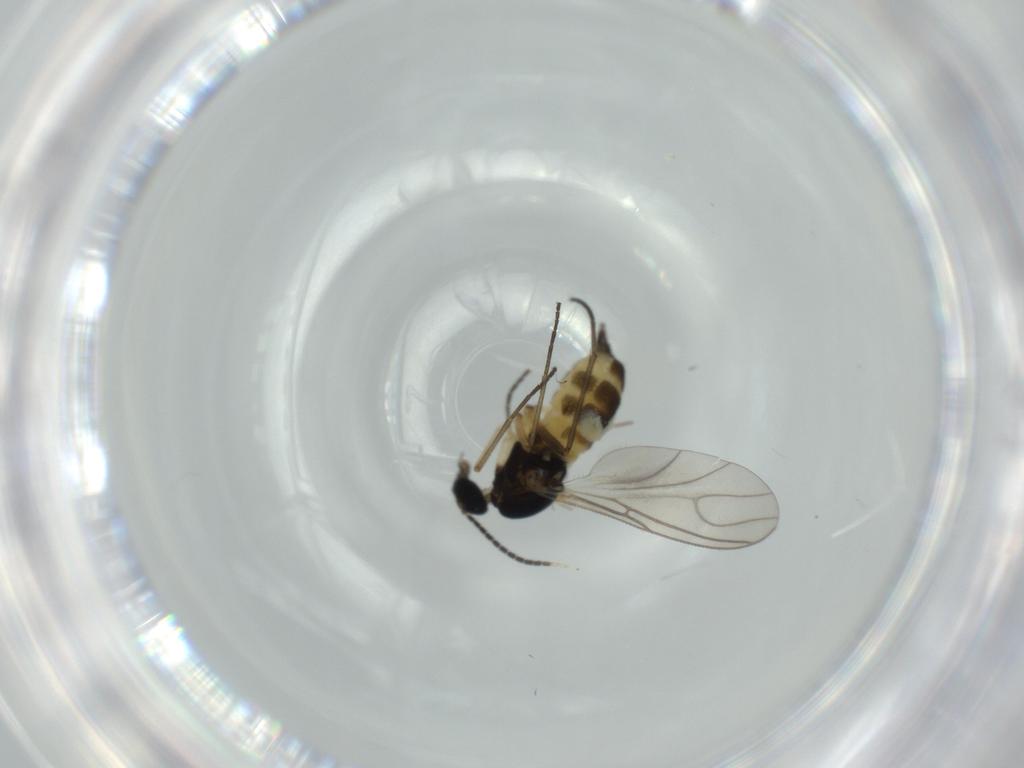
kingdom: Animalia
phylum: Arthropoda
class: Insecta
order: Diptera
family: Sciaridae
